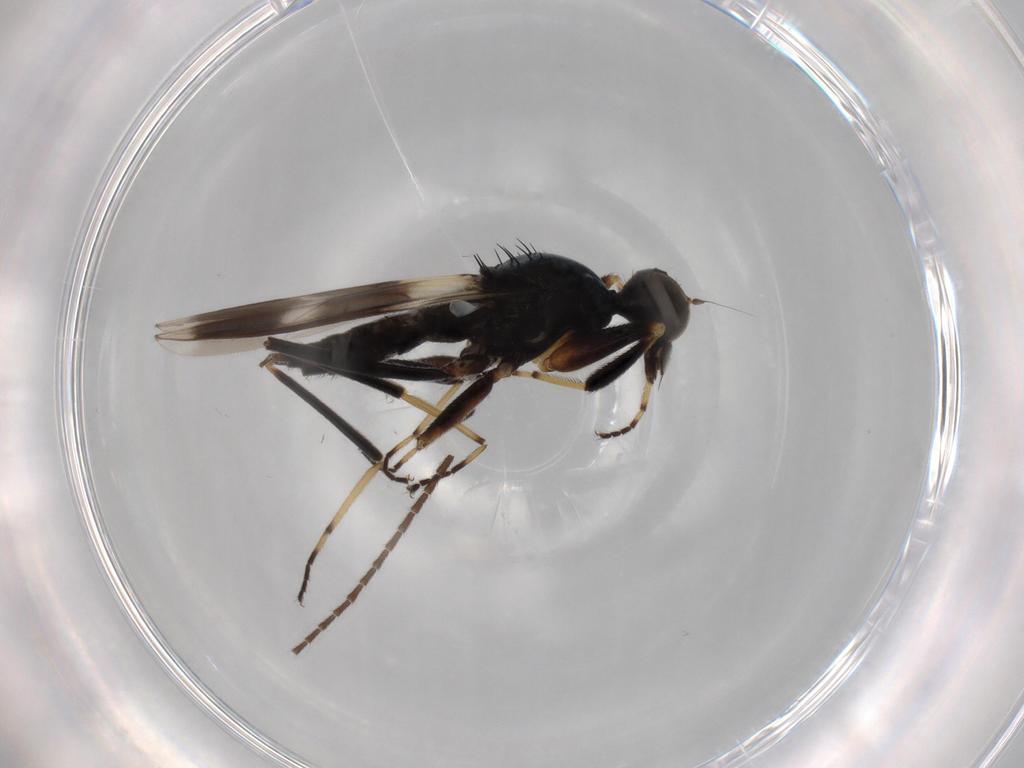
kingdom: Animalia
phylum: Arthropoda
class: Insecta
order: Diptera
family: Hybotidae
